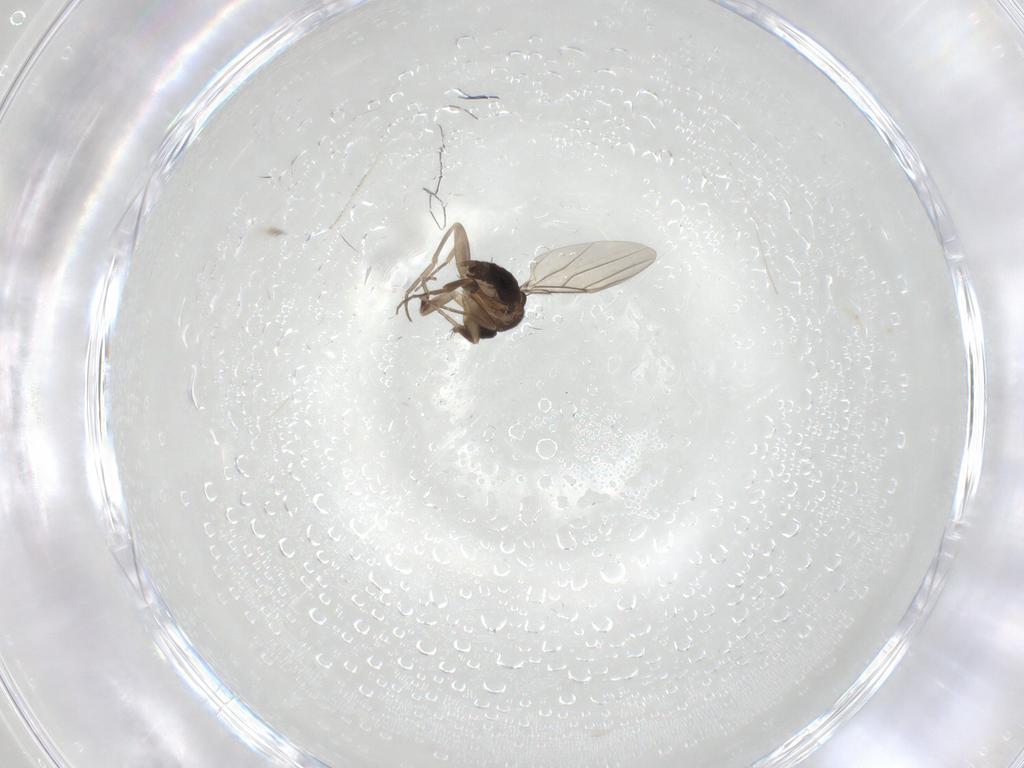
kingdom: Animalia
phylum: Arthropoda
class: Insecta
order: Diptera
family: Phoridae
